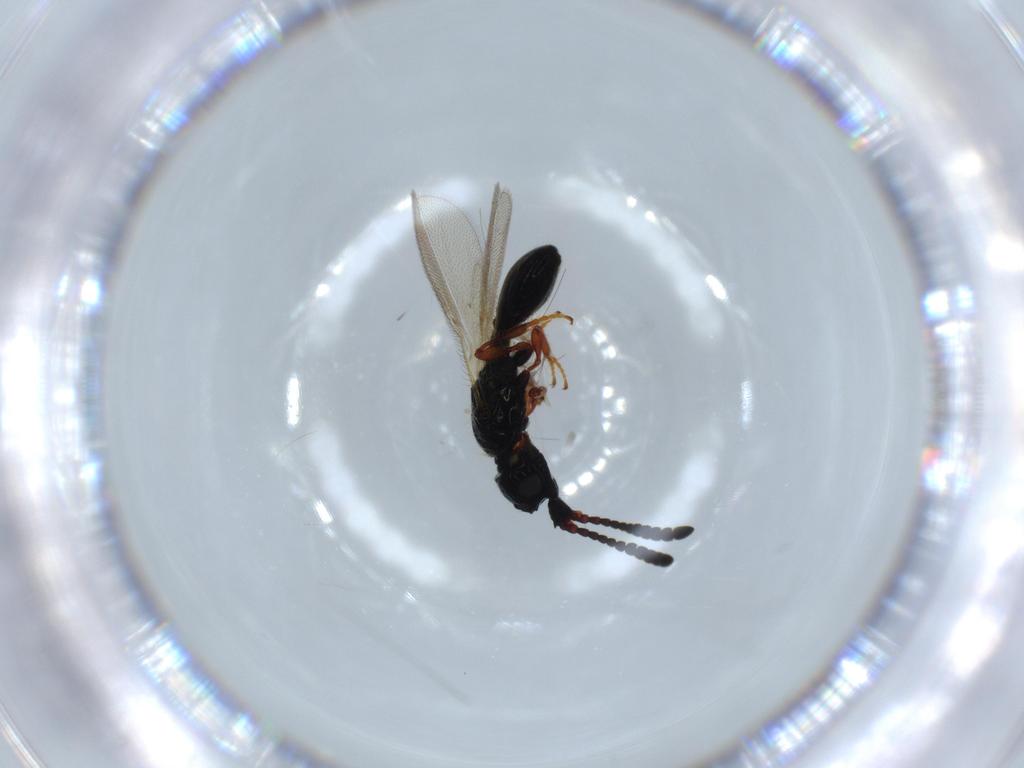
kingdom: Animalia
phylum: Arthropoda
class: Insecta
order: Hymenoptera
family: Diapriidae
